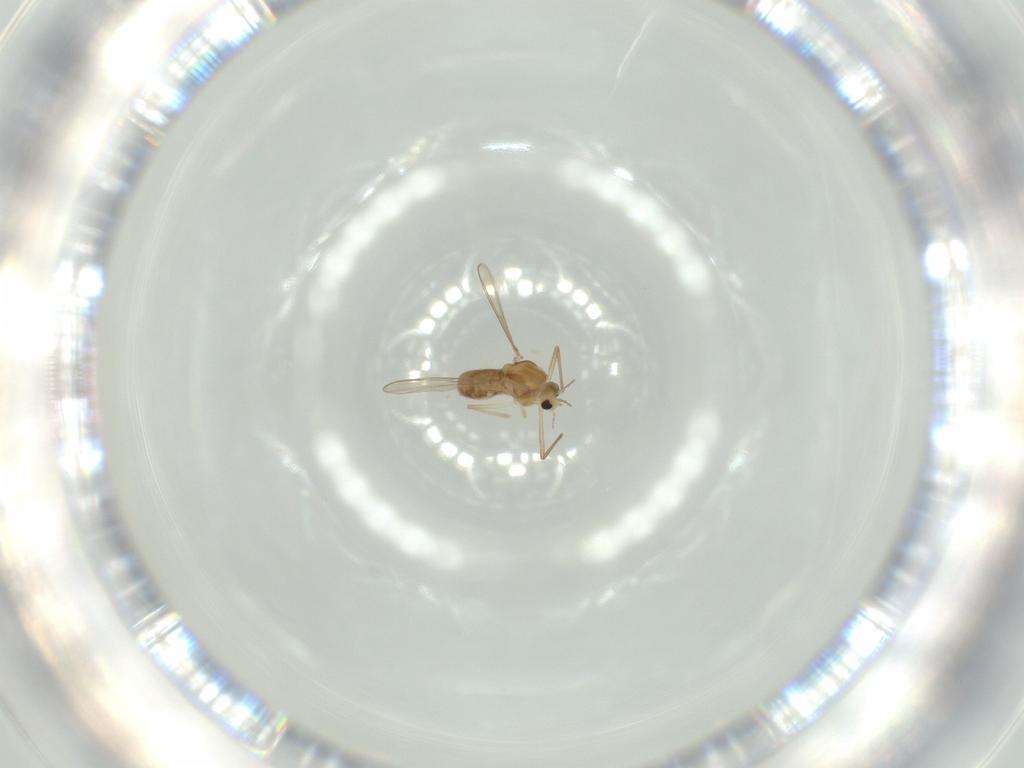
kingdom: Animalia
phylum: Arthropoda
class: Insecta
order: Diptera
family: Chironomidae
